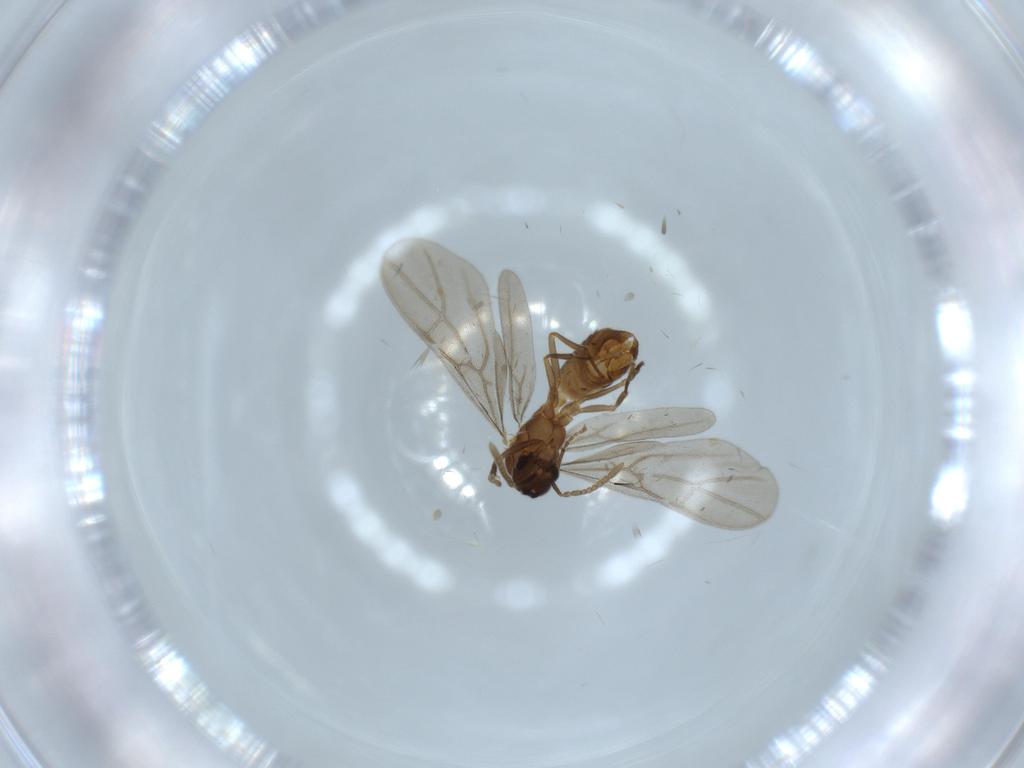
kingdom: Animalia
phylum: Arthropoda
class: Insecta
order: Hymenoptera
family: Formicidae
